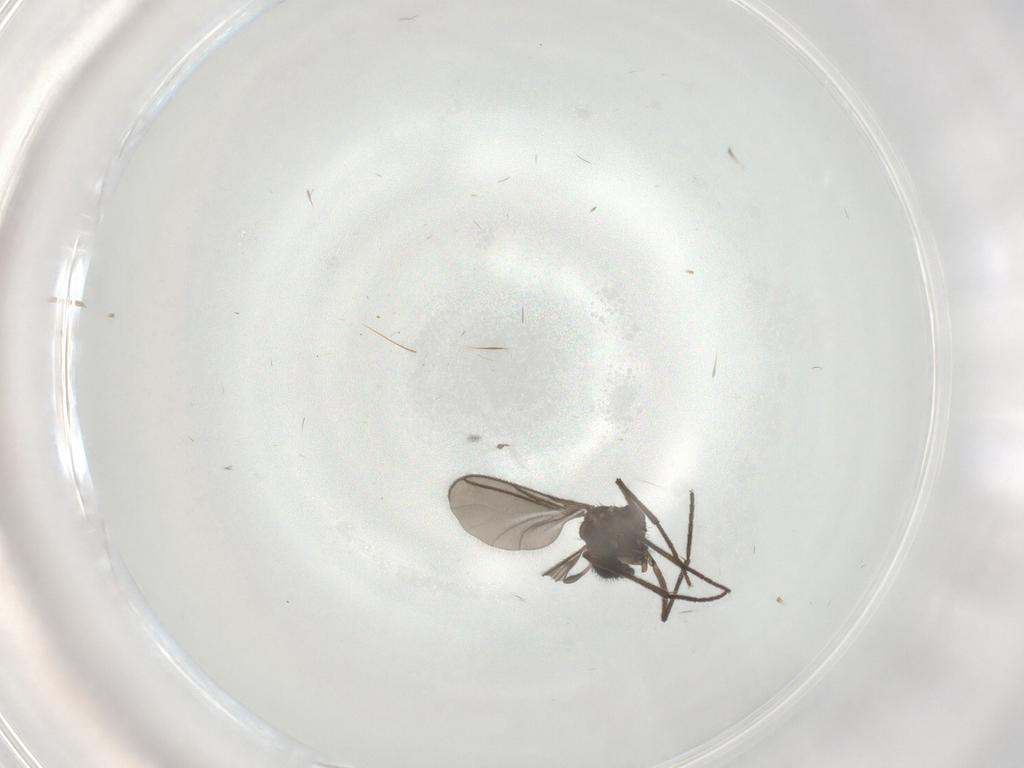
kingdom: Animalia
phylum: Arthropoda
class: Insecta
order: Diptera
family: Sciaridae
